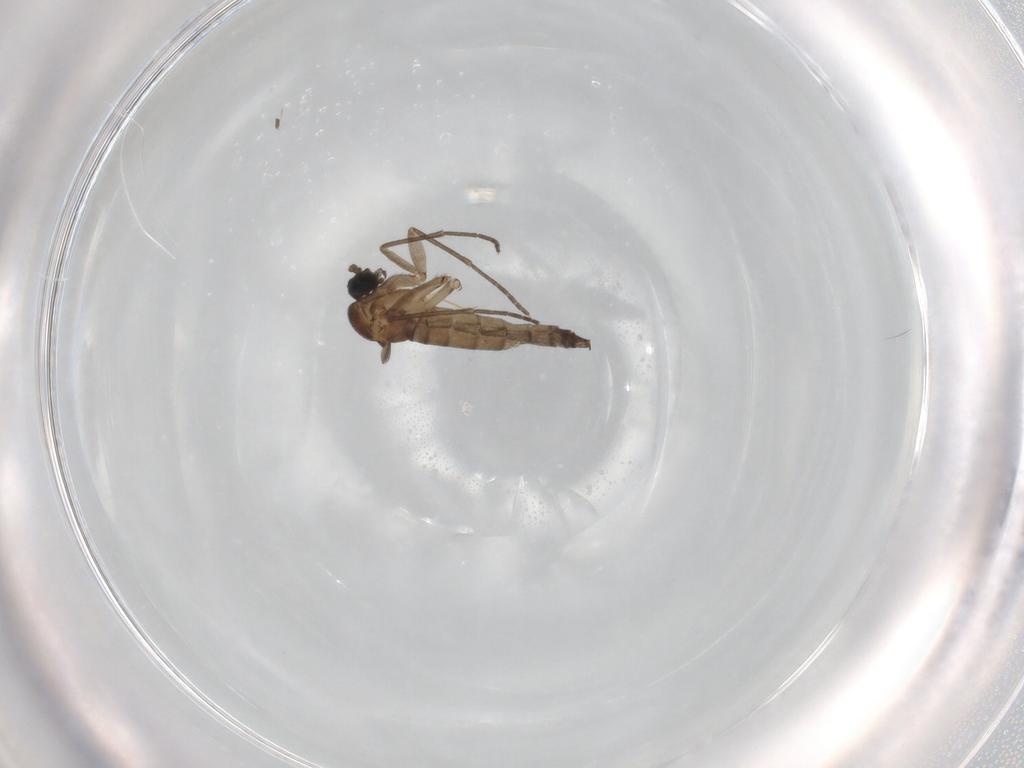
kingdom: Animalia
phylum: Arthropoda
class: Insecta
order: Diptera
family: Sciaridae
